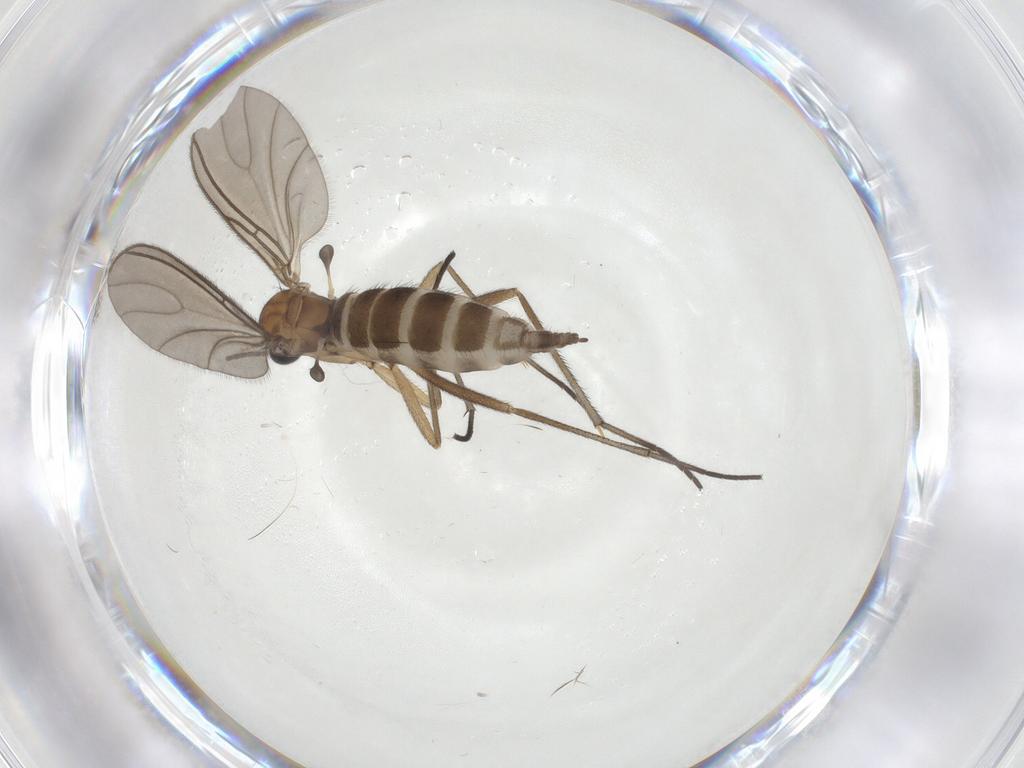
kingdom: Animalia
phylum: Arthropoda
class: Insecta
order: Diptera
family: Sciaridae
